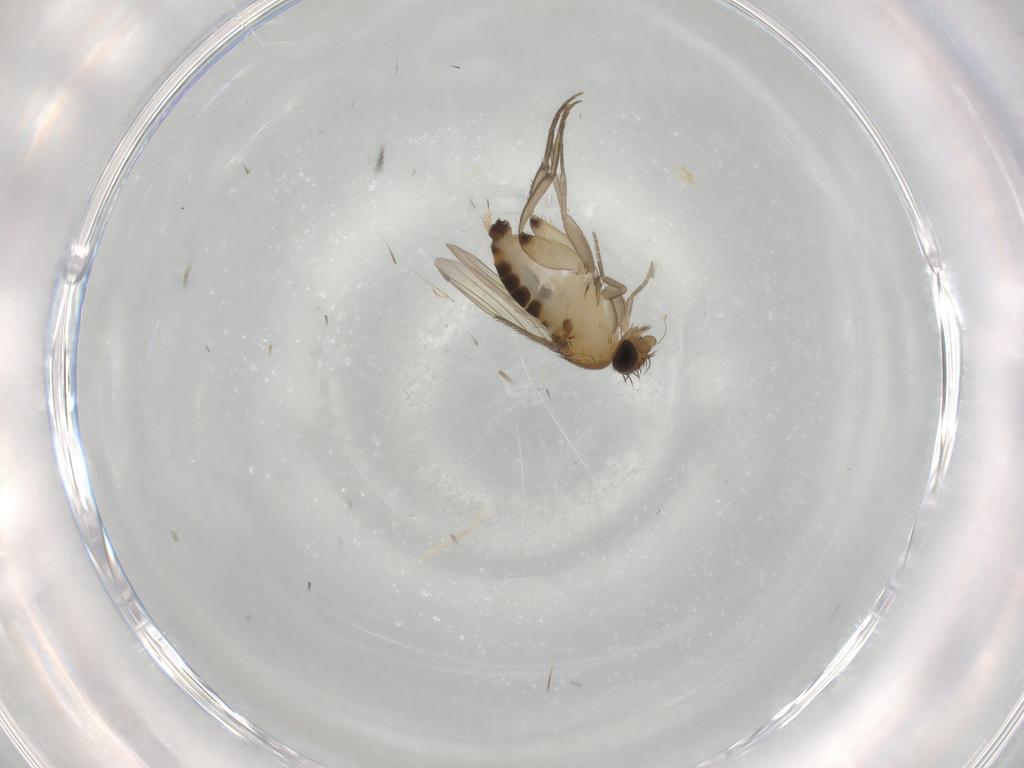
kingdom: Animalia
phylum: Arthropoda
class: Insecta
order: Diptera
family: Phoridae
